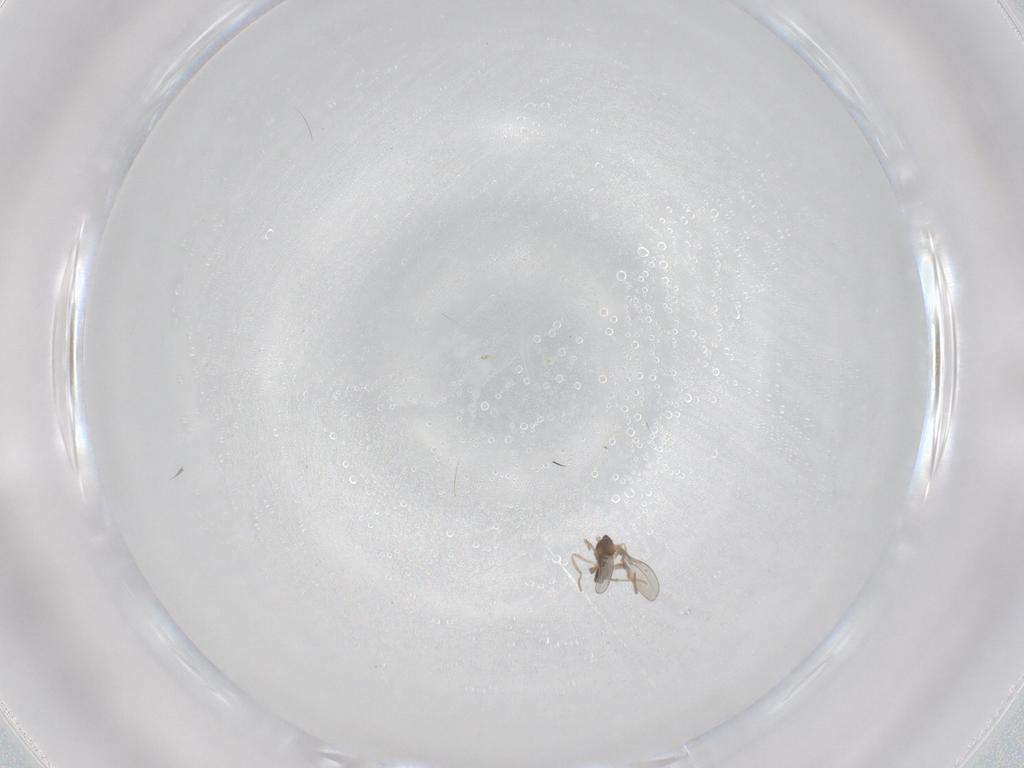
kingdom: Animalia
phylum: Arthropoda
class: Insecta
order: Diptera
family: Cecidomyiidae
